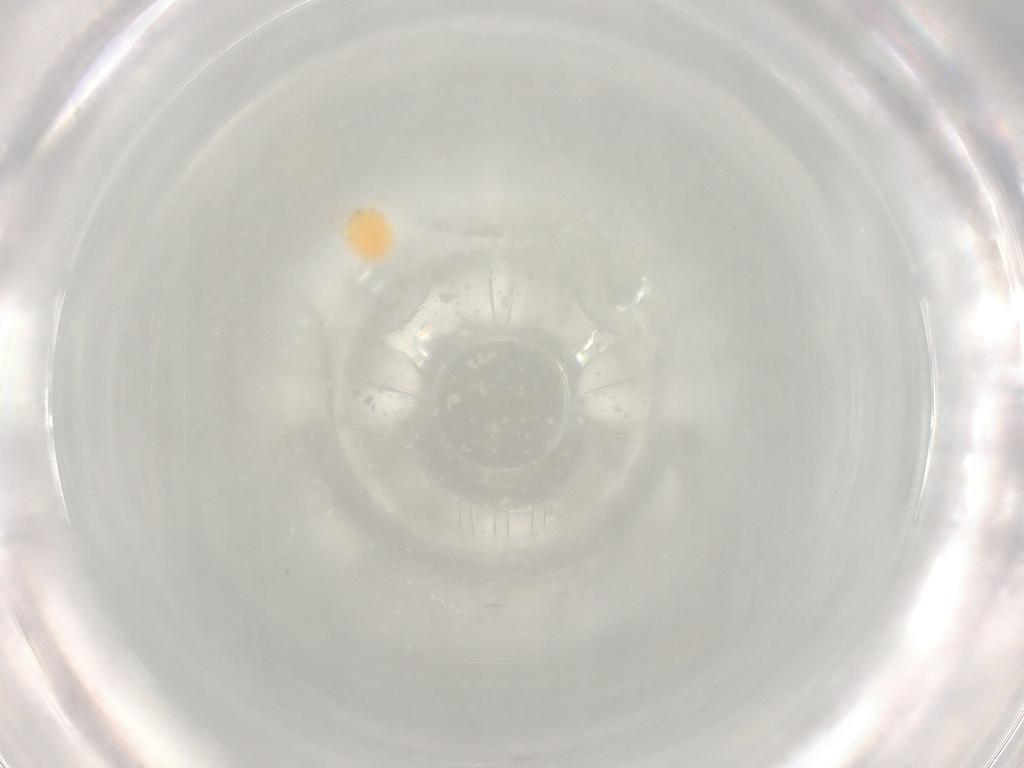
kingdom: Animalia
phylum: Arthropoda
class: Arachnida
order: Trombidiformes
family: Hydryphantidae
